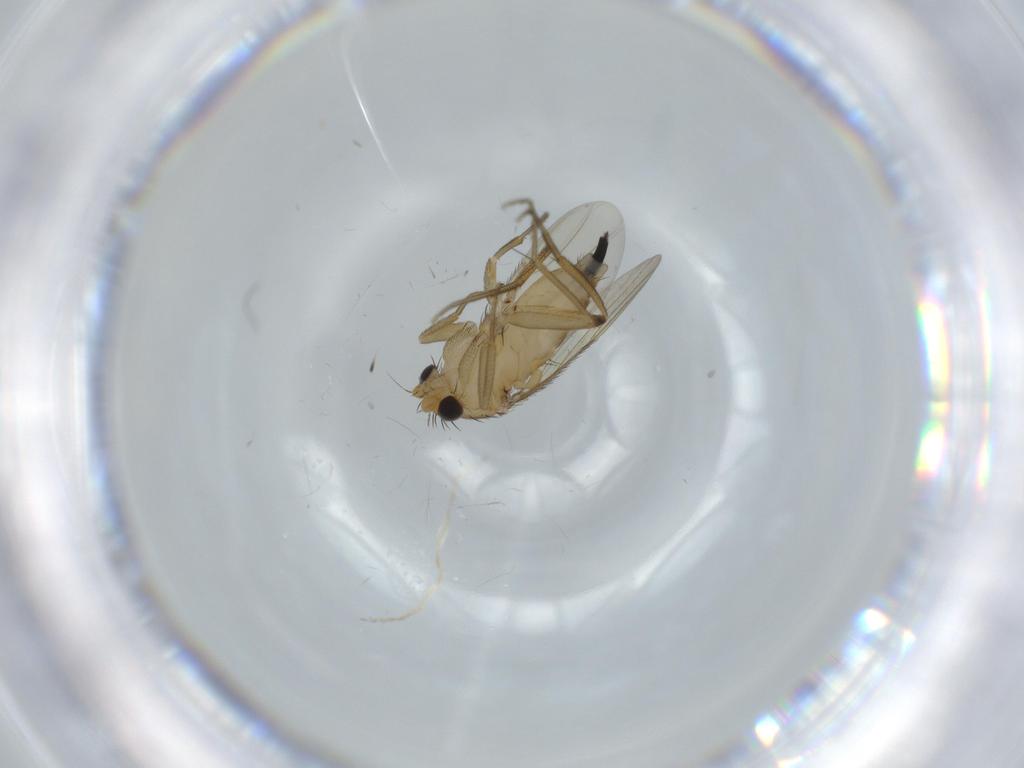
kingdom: Animalia
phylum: Arthropoda
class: Insecta
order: Diptera
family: Phoridae
